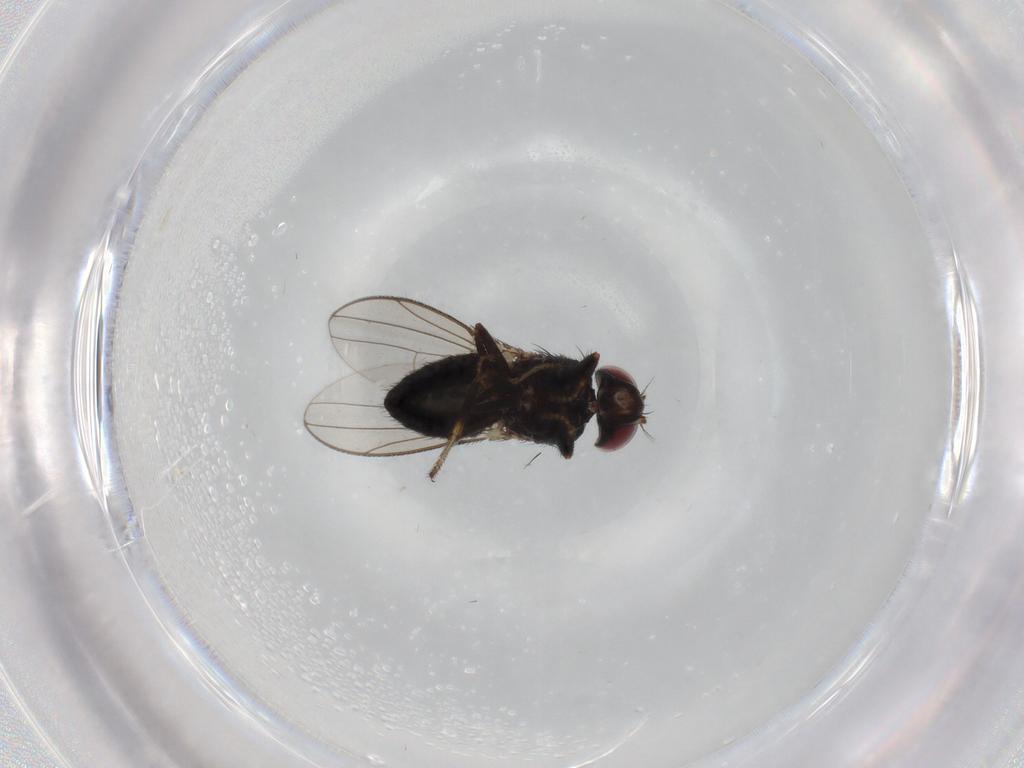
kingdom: Animalia
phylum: Arthropoda
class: Insecta
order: Diptera
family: Ephydridae
